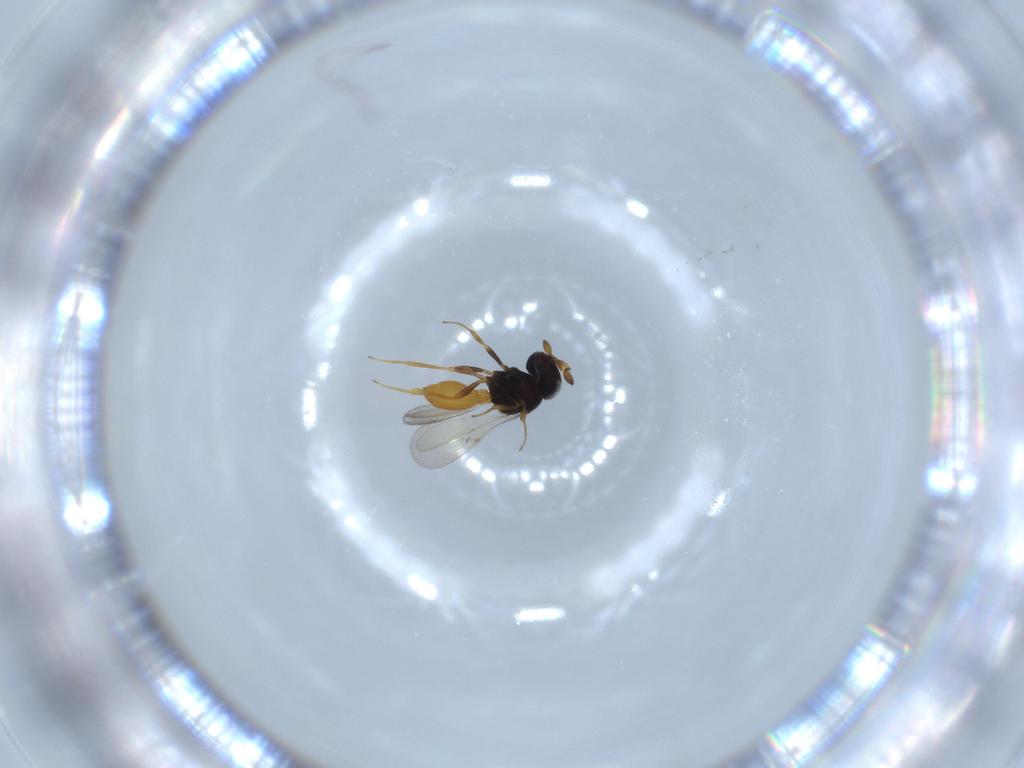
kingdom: Animalia
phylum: Arthropoda
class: Insecta
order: Hymenoptera
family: Scelionidae
